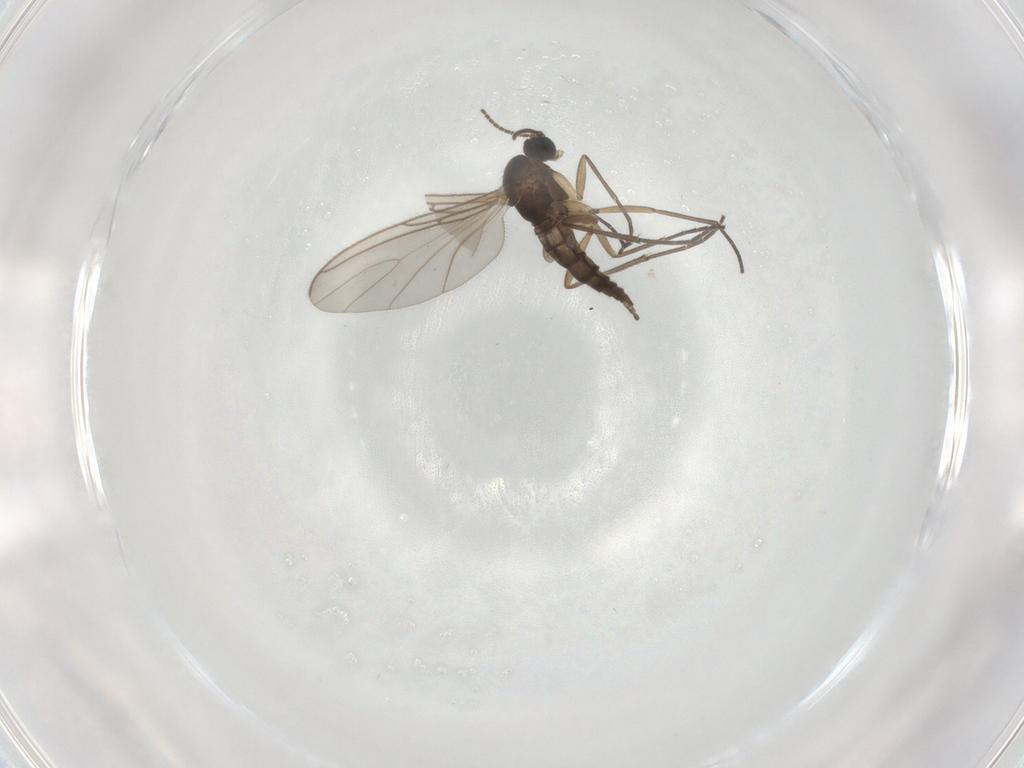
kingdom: Animalia
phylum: Arthropoda
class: Insecta
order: Diptera
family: Sciaridae
